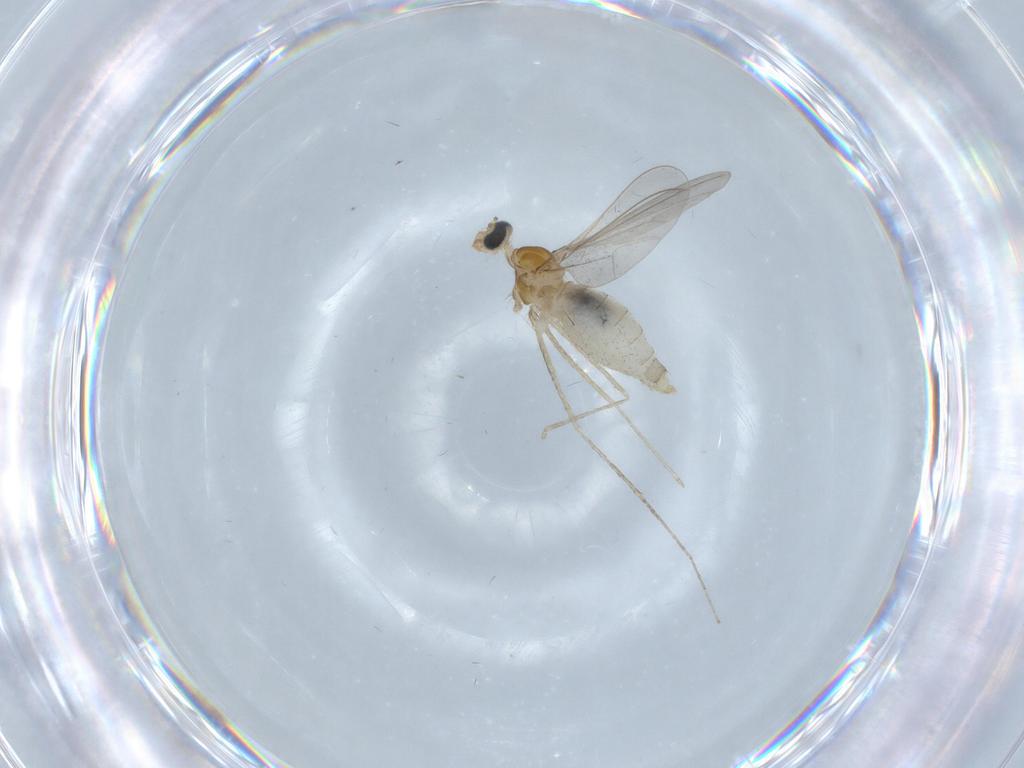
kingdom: Animalia
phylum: Arthropoda
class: Insecta
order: Diptera
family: Cecidomyiidae
